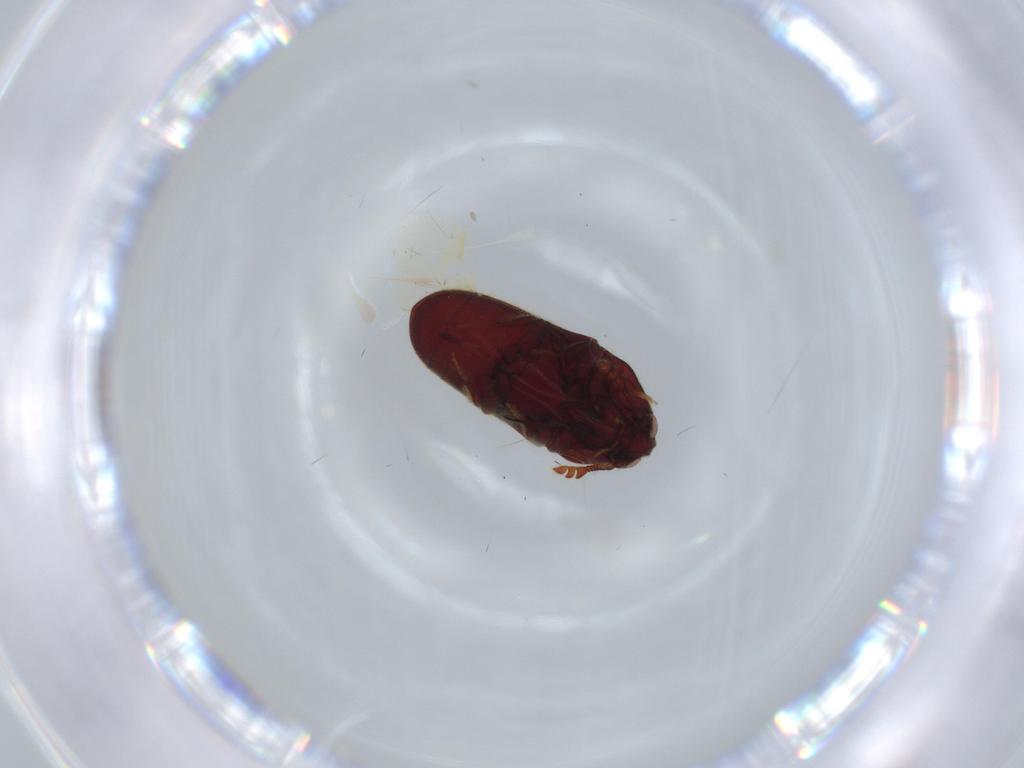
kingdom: Animalia
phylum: Arthropoda
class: Insecta
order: Coleoptera
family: Throscidae
